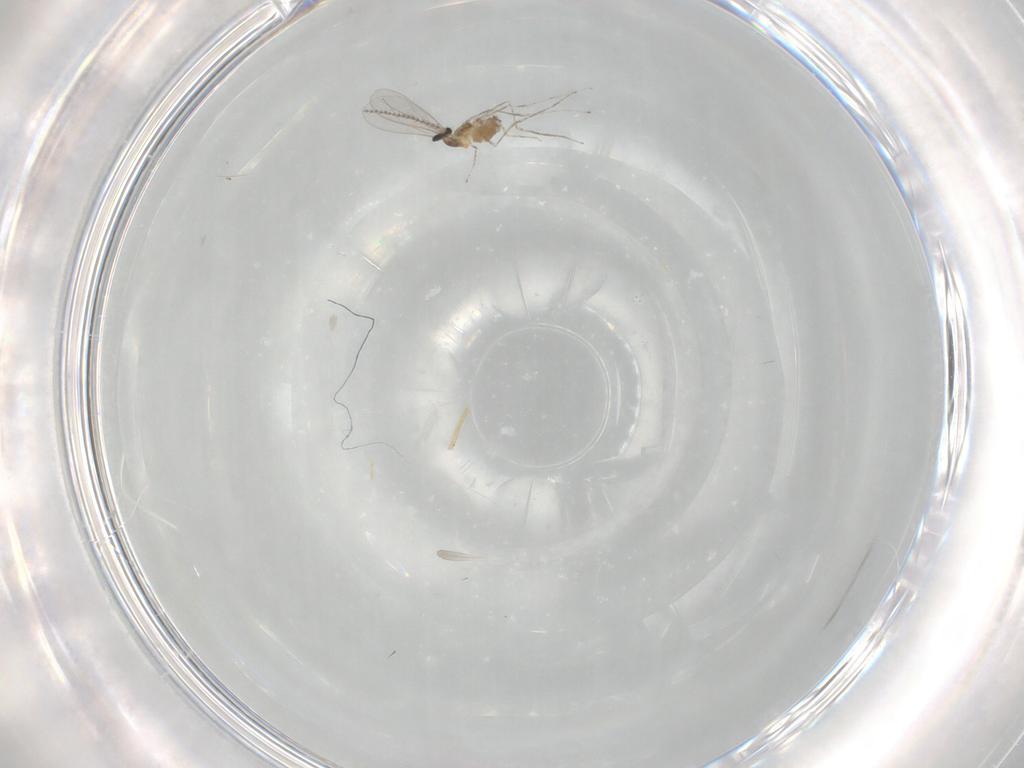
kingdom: Animalia
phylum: Arthropoda
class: Insecta
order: Diptera
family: Cecidomyiidae
